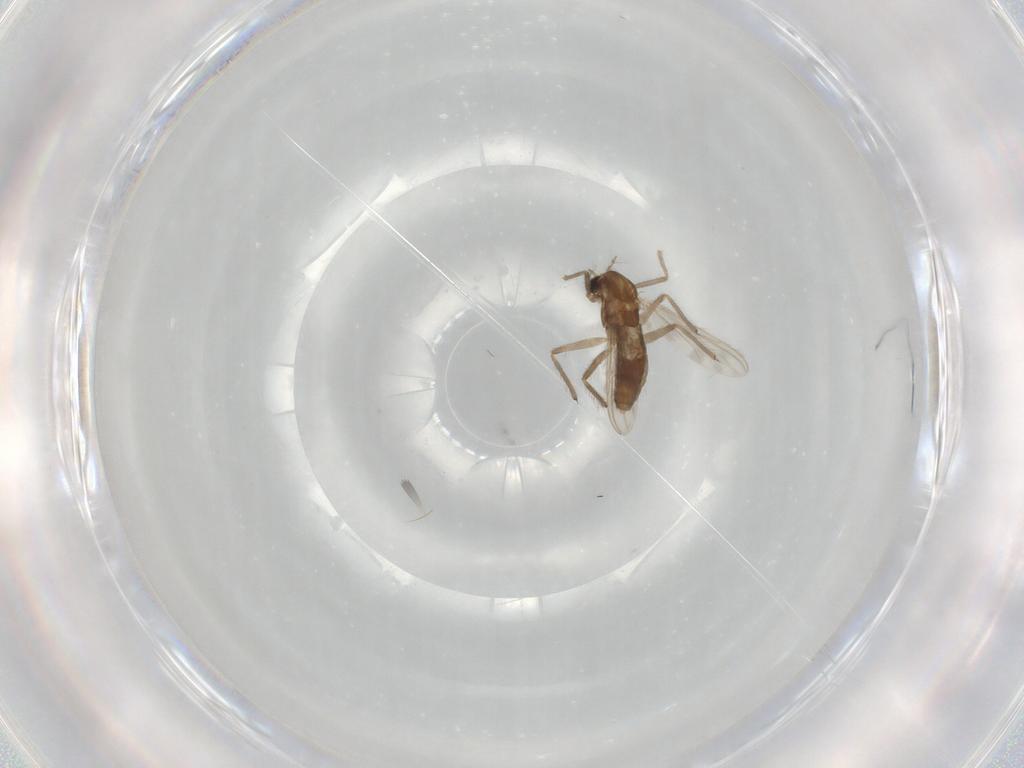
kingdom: Animalia
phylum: Arthropoda
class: Insecta
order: Diptera
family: Chironomidae
